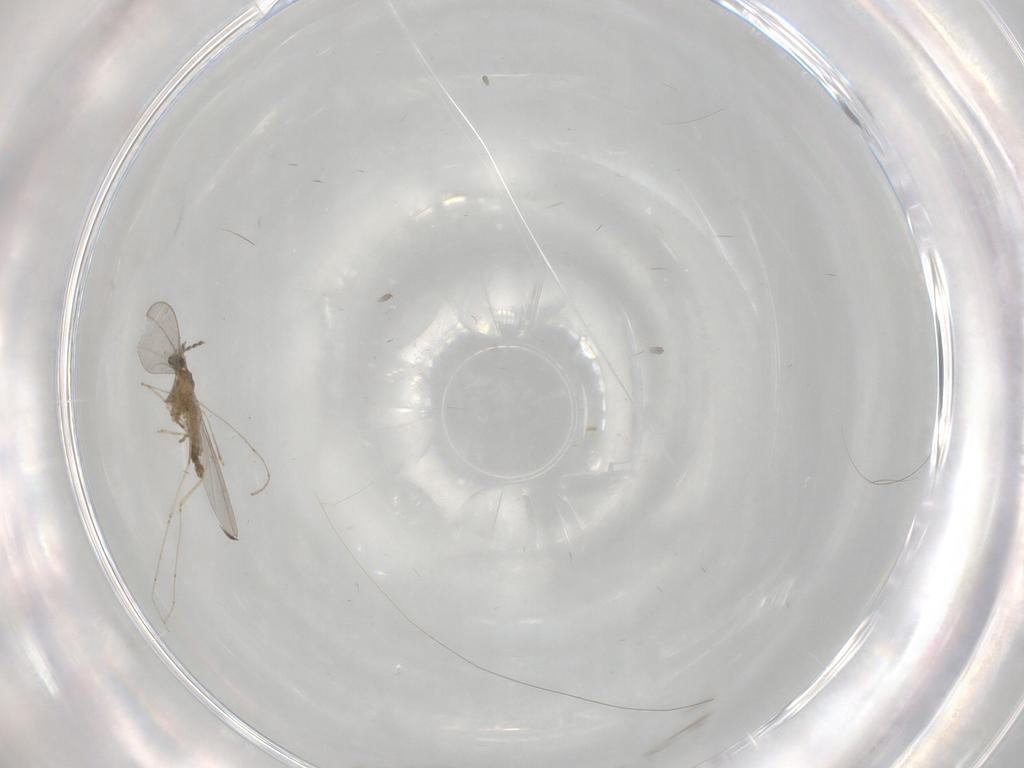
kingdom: Animalia
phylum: Arthropoda
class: Insecta
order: Diptera
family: Cecidomyiidae
